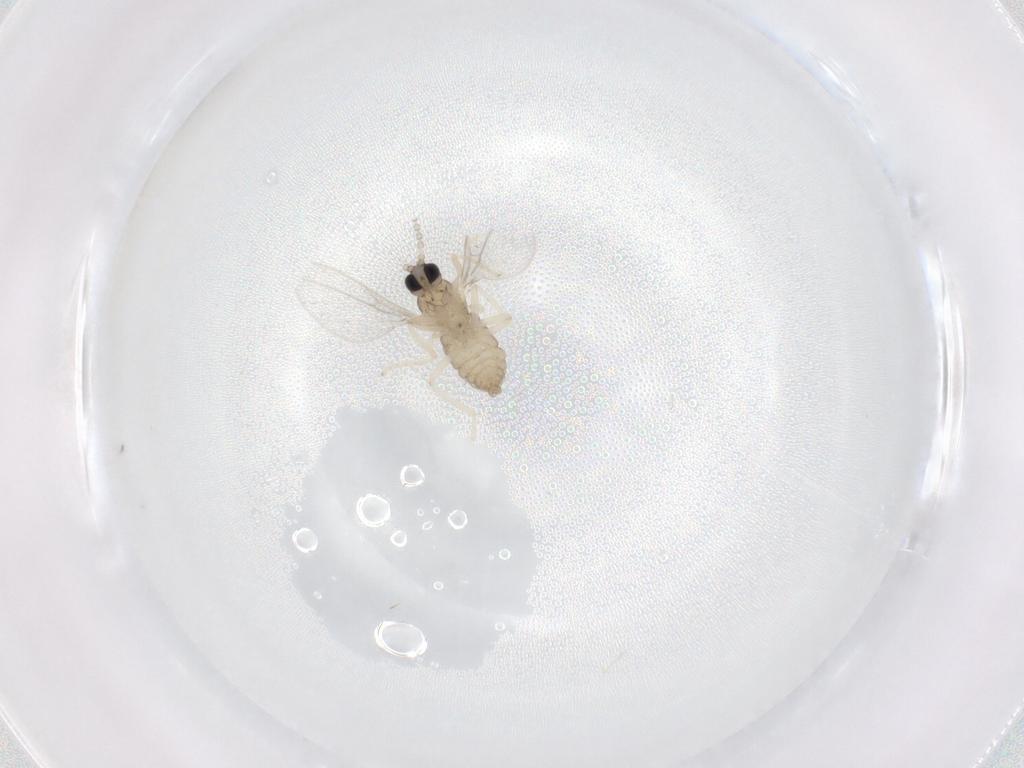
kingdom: Animalia
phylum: Arthropoda
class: Insecta
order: Diptera
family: Cecidomyiidae
